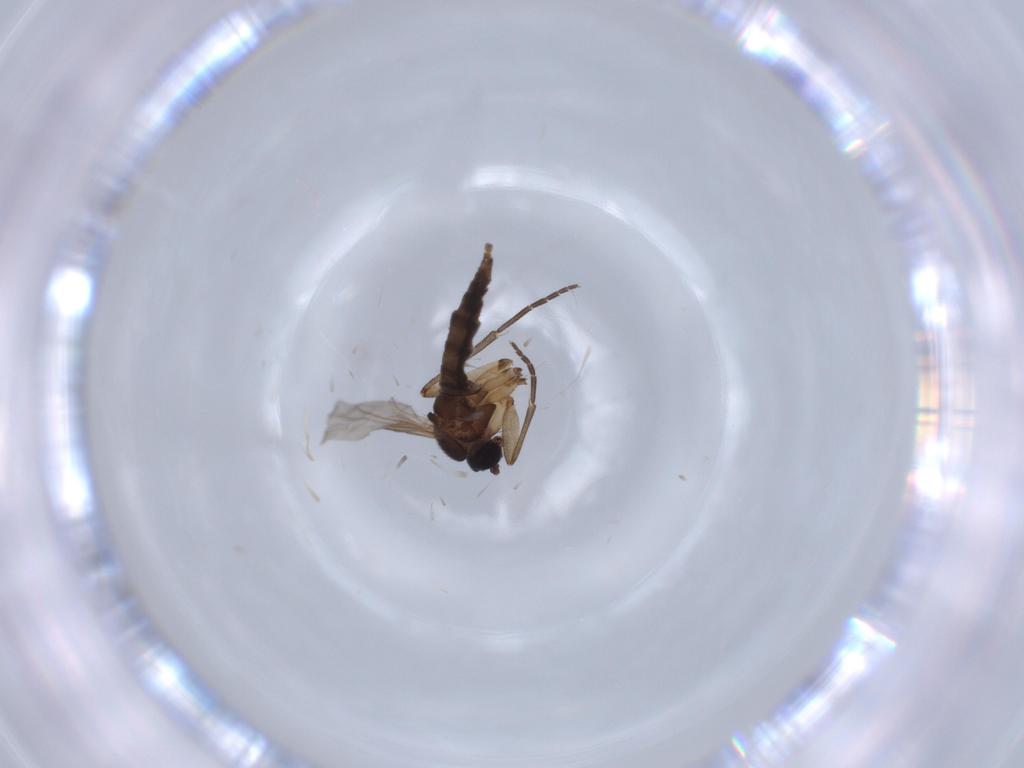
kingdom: Animalia
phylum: Arthropoda
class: Insecta
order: Diptera
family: Sciaridae
